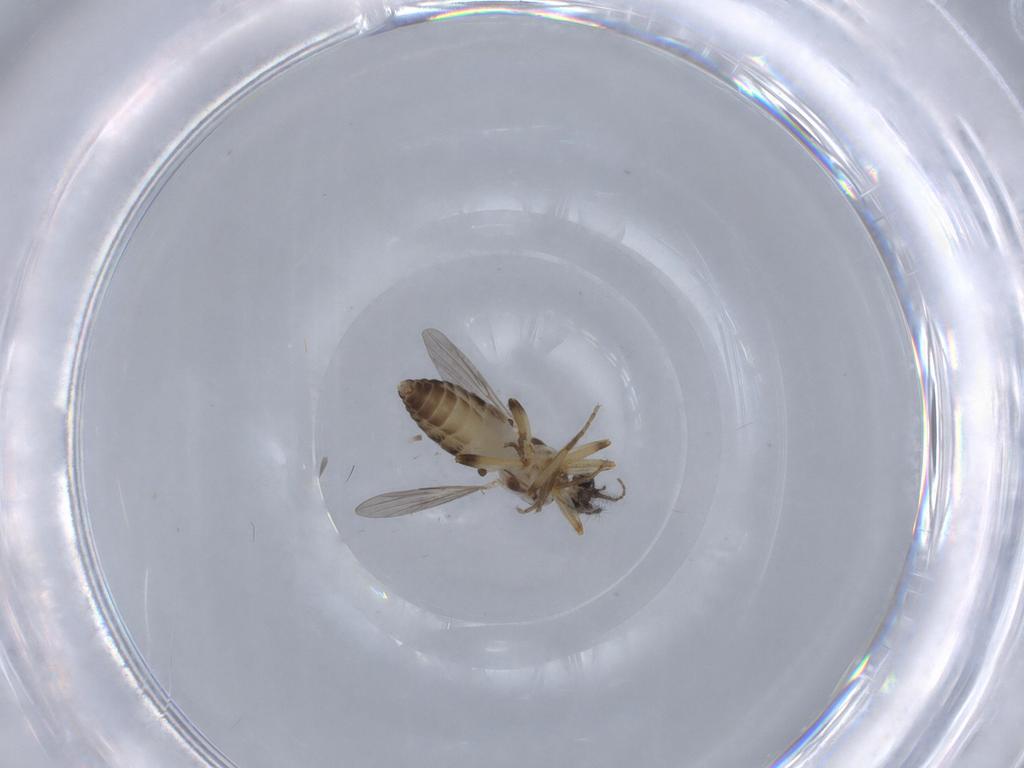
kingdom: Animalia
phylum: Arthropoda
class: Insecta
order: Diptera
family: Ceratopogonidae
